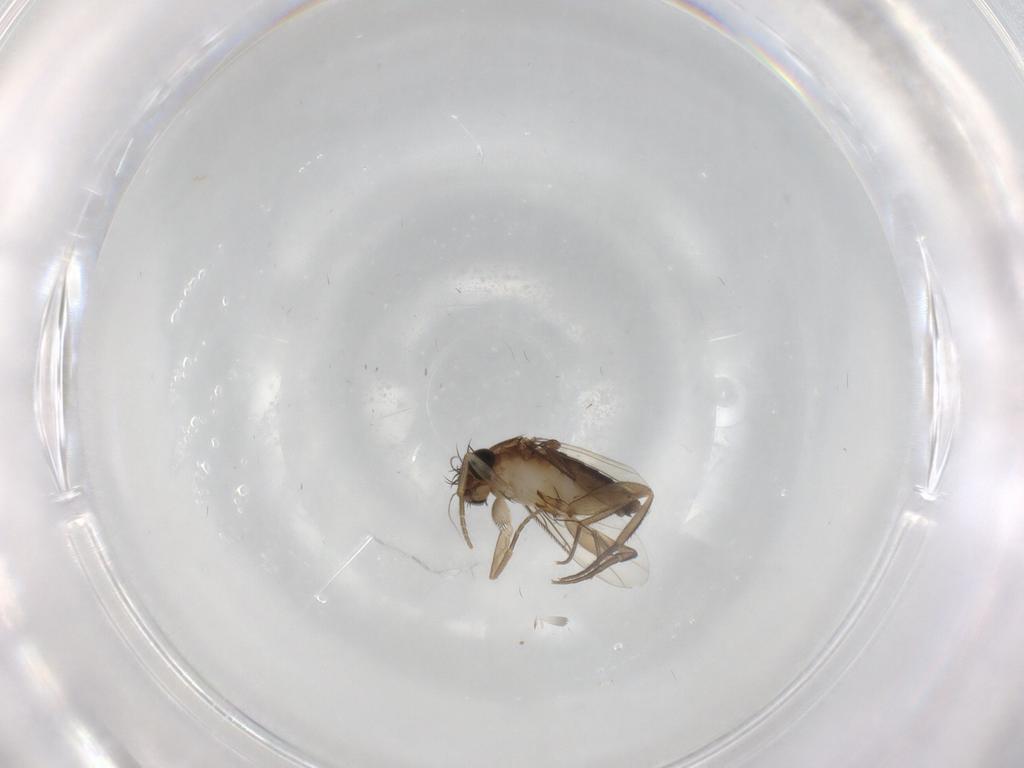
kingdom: Animalia
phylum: Arthropoda
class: Insecta
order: Diptera
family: Phoridae
